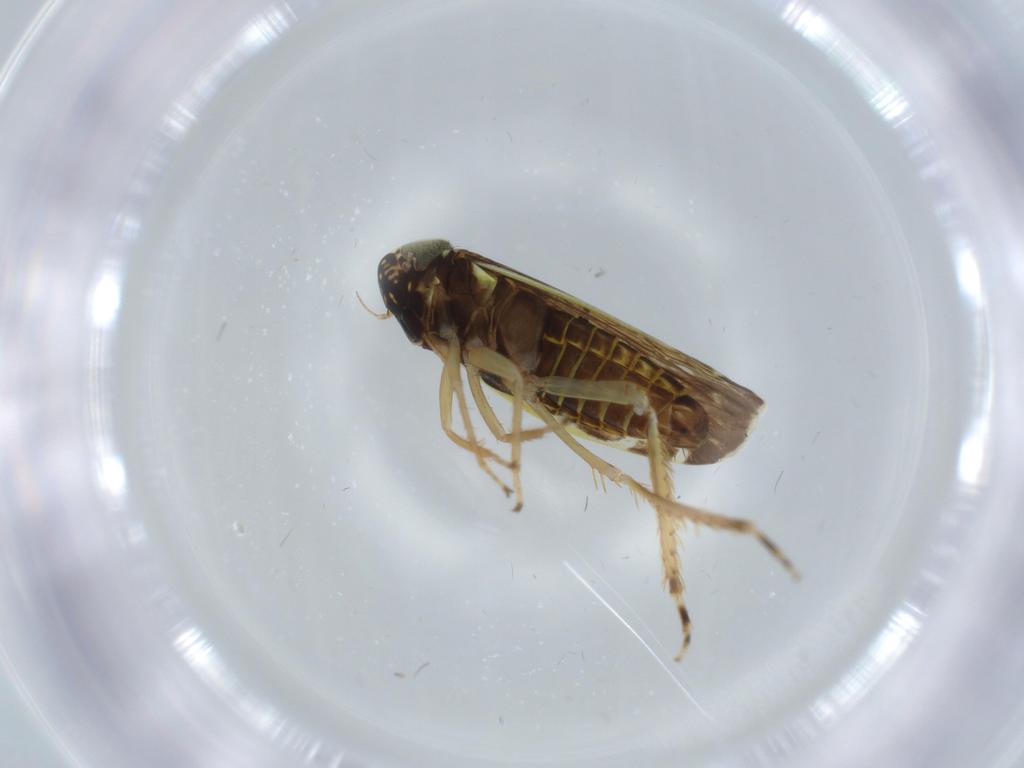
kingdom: Animalia
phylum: Arthropoda
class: Insecta
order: Hemiptera
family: Cicadellidae
